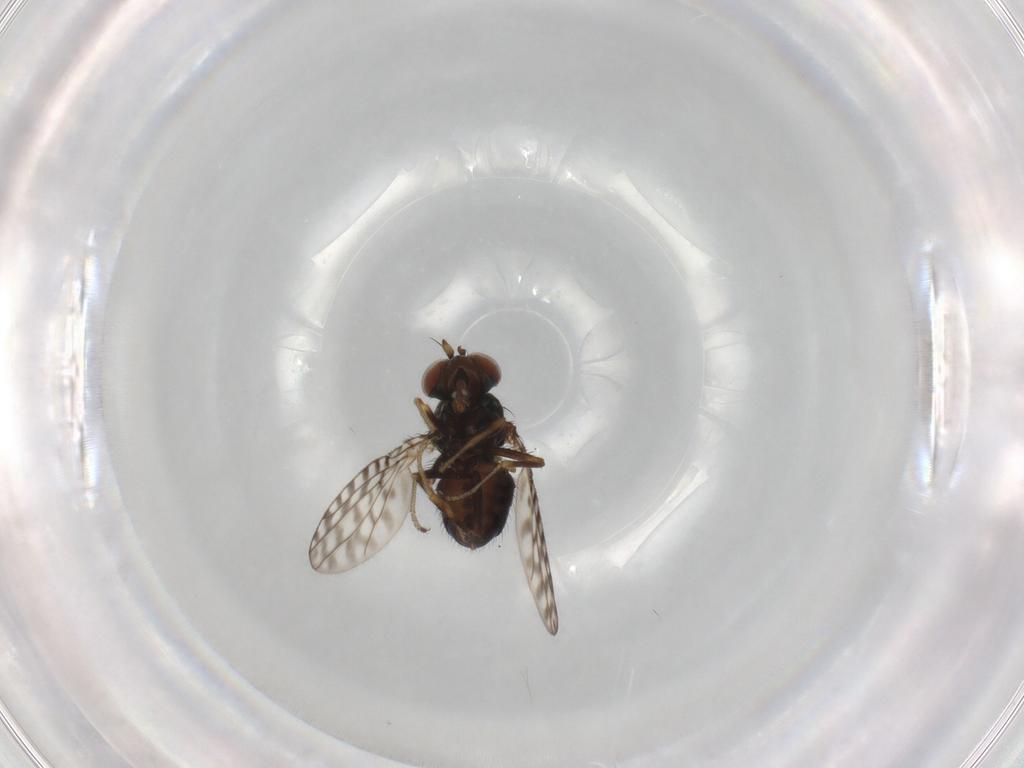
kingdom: Animalia
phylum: Arthropoda
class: Insecta
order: Diptera
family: Ephydridae
